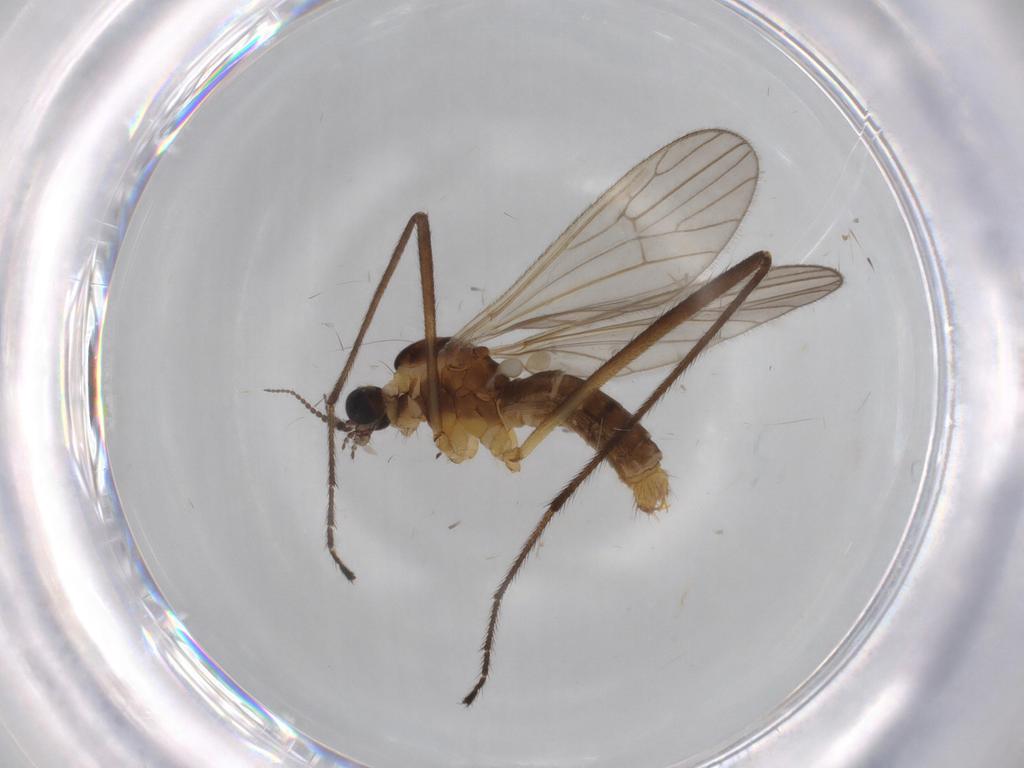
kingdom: Animalia
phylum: Arthropoda
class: Insecta
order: Diptera
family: Agromyzidae
